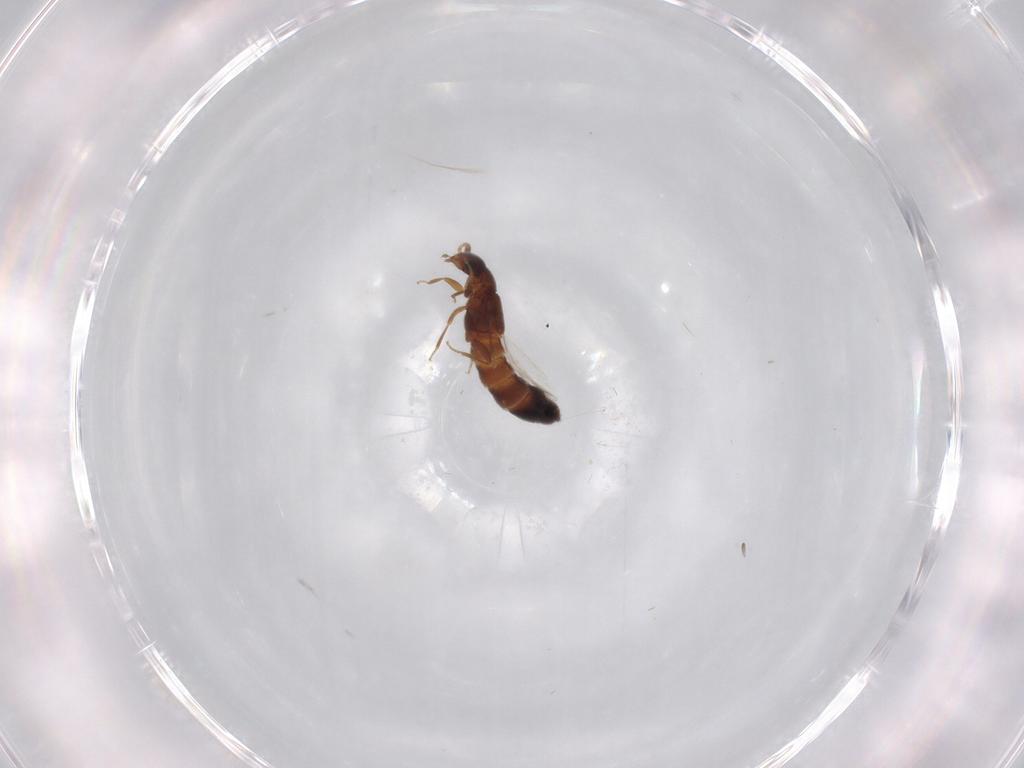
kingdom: Animalia
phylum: Arthropoda
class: Insecta
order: Coleoptera
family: Staphylinidae
